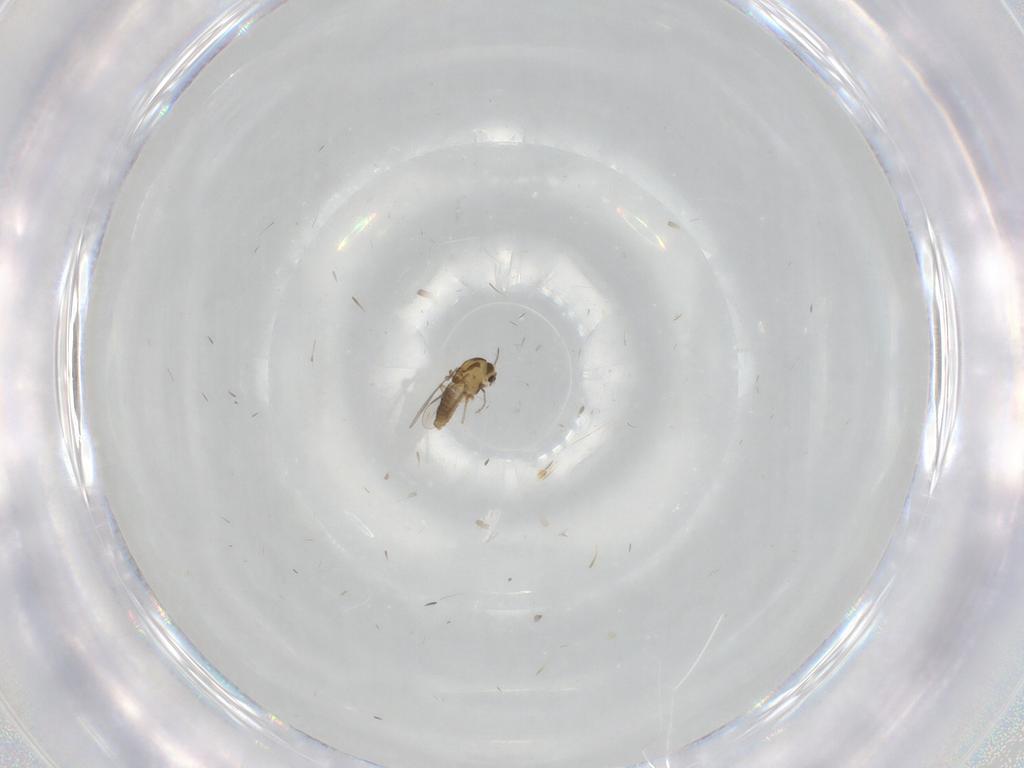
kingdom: Animalia
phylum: Arthropoda
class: Insecta
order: Diptera
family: Chironomidae
